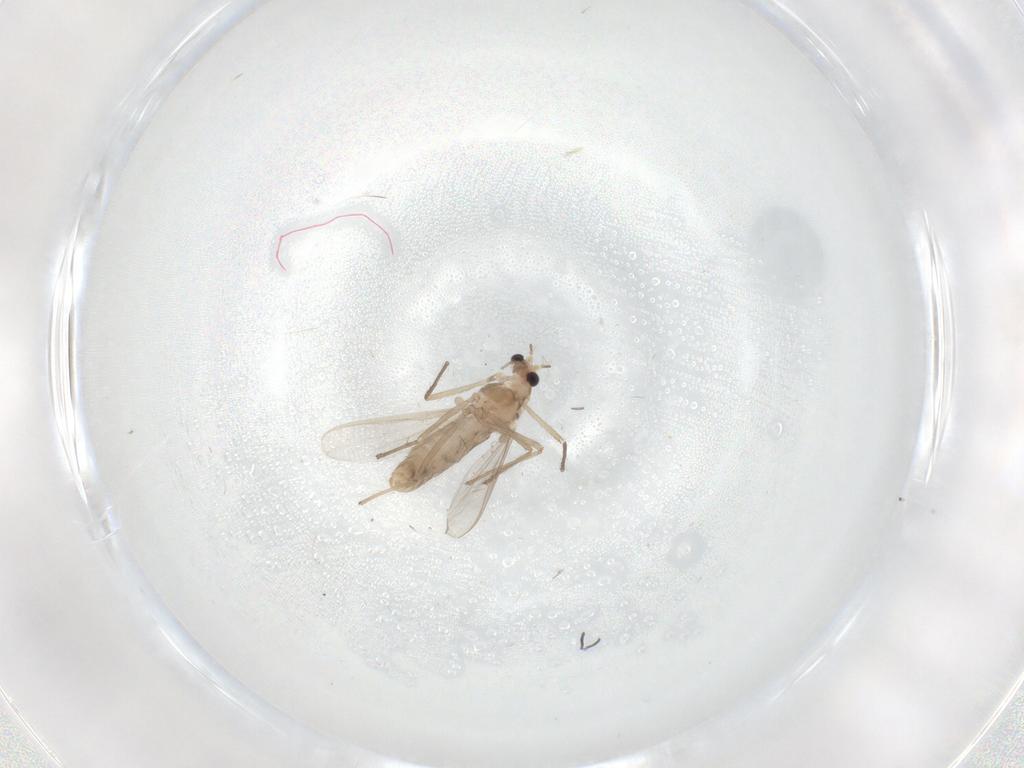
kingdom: Animalia
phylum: Arthropoda
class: Insecta
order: Diptera
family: Chironomidae
